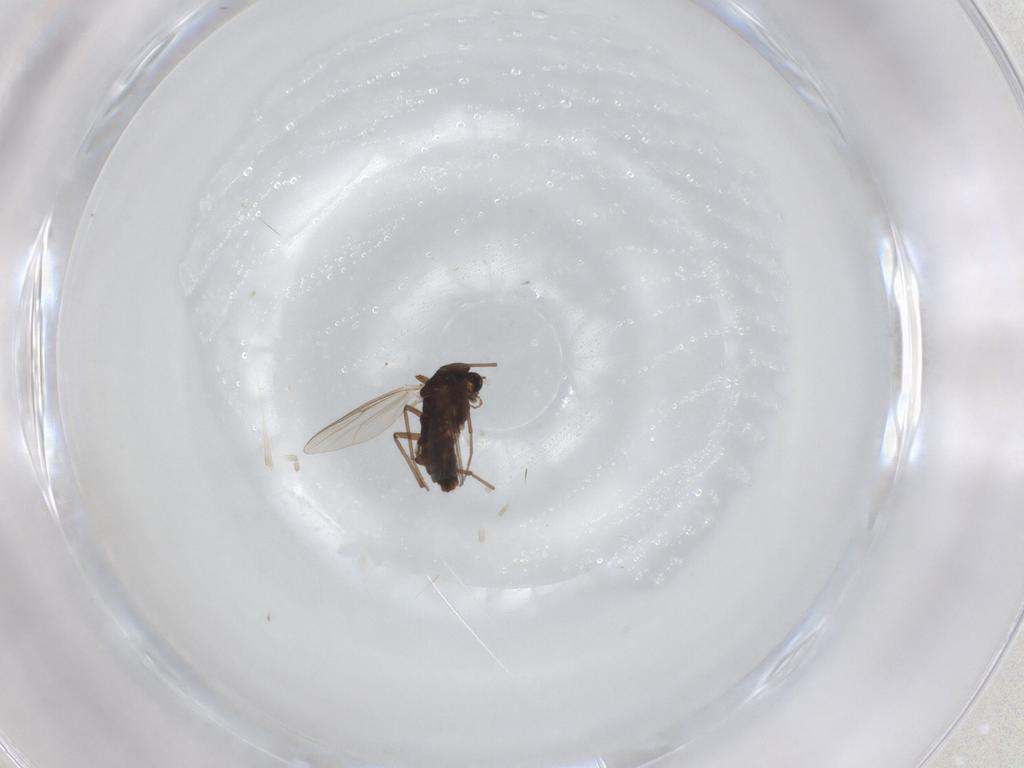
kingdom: Animalia
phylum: Arthropoda
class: Insecta
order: Diptera
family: Chironomidae
